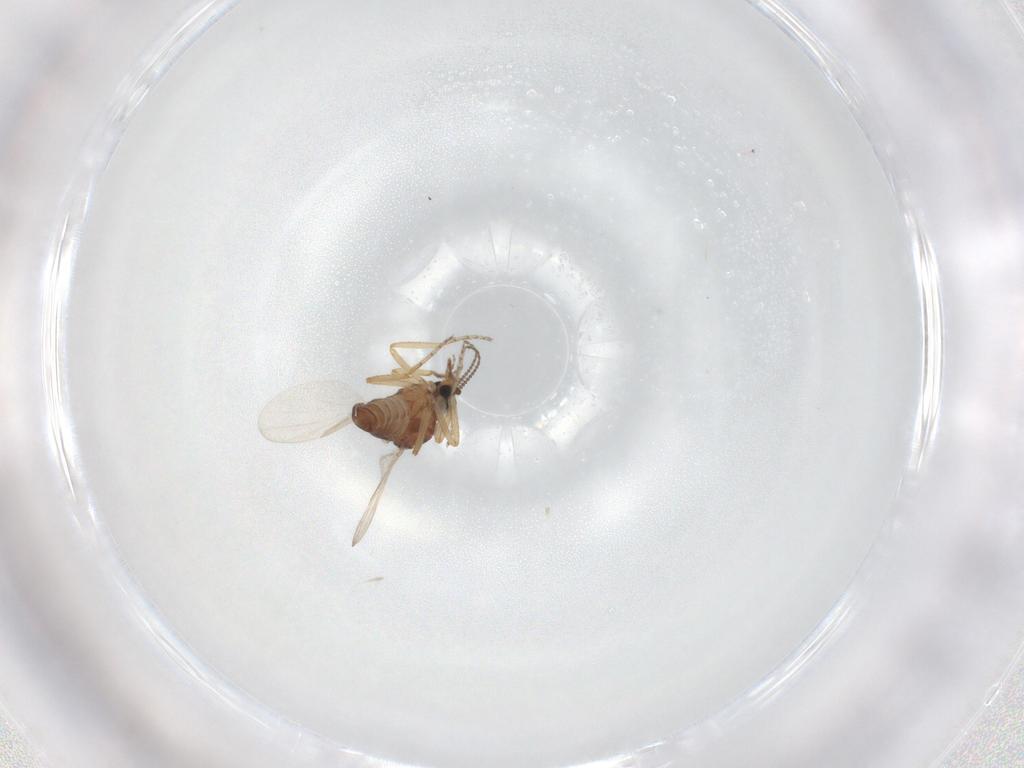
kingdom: Animalia
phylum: Arthropoda
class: Insecta
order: Diptera
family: Ceratopogonidae
